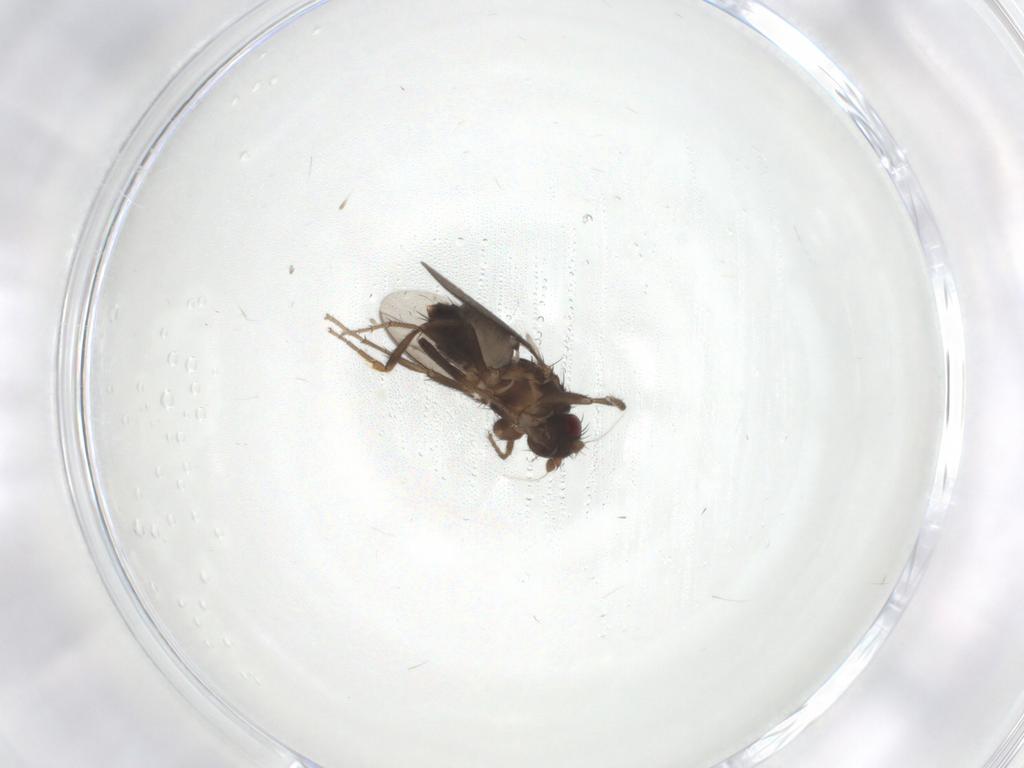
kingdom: Animalia
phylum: Arthropoda
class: Insecta
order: Diptera
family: Sphaeroceridae
